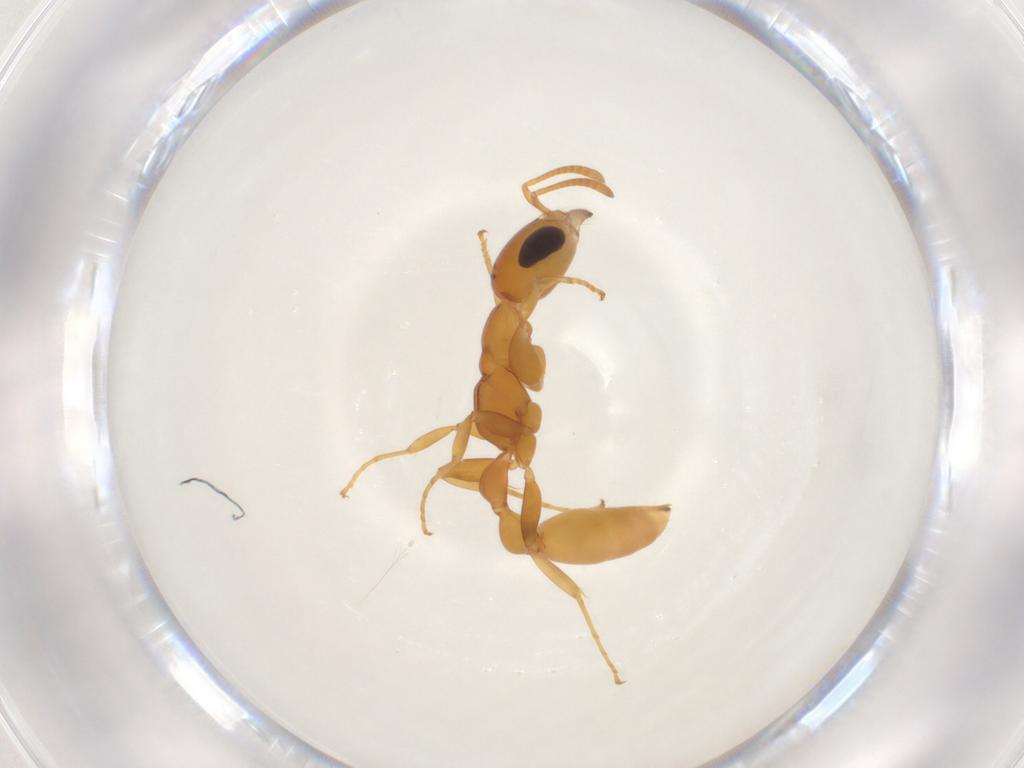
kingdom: Animalia
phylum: Arthropoda
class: Insecta
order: Hymenoptera
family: Formicidae
